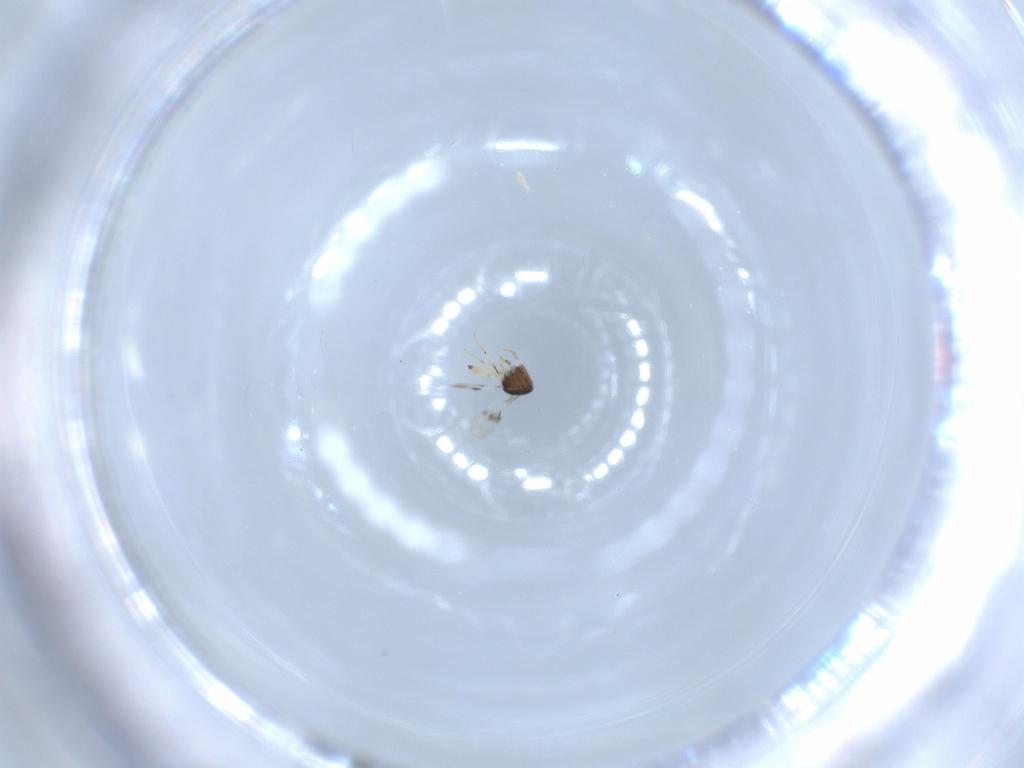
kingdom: Animalia
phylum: Arthropoda
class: Insecta
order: Hymenoptera
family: Scelionidae
